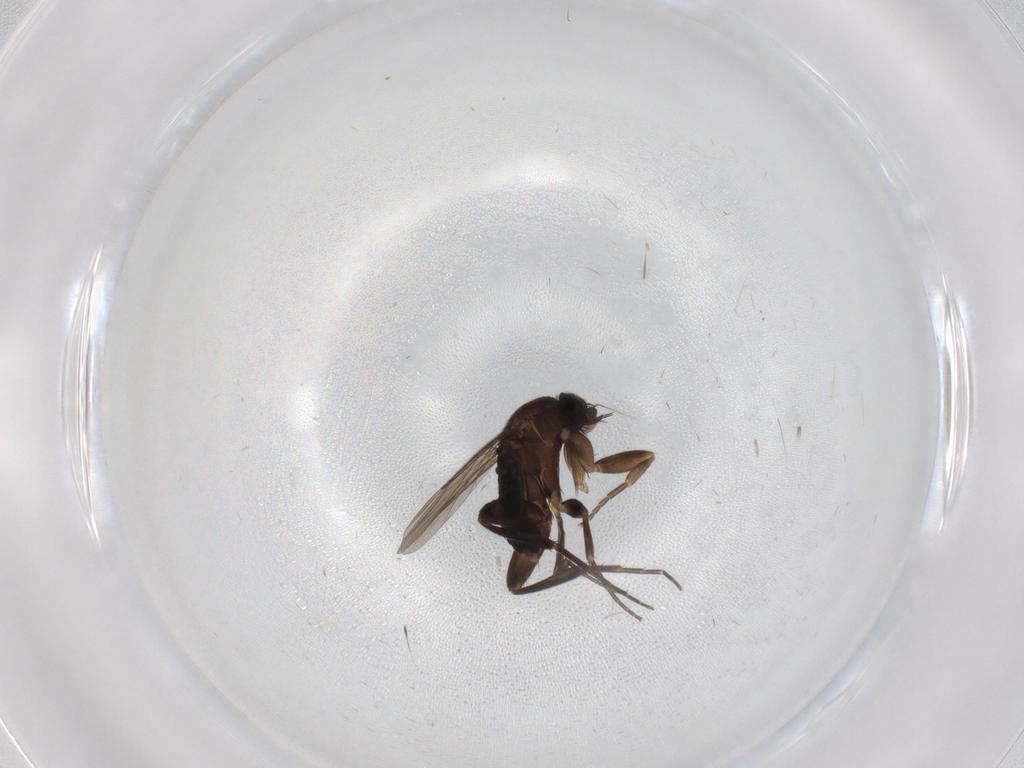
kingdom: Animalia
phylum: Arthropoda
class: Insecta
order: Diptera
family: Phoridae
